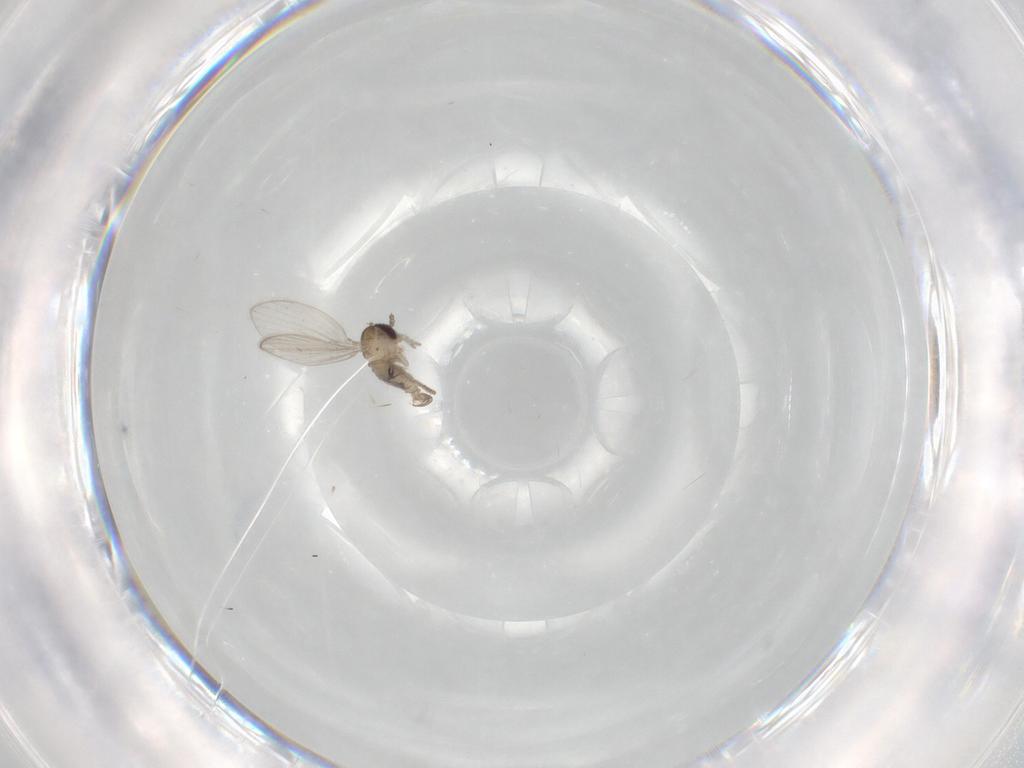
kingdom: Animalia
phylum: Arthropoda
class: Insecta
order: Diptera
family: Psychodidae
